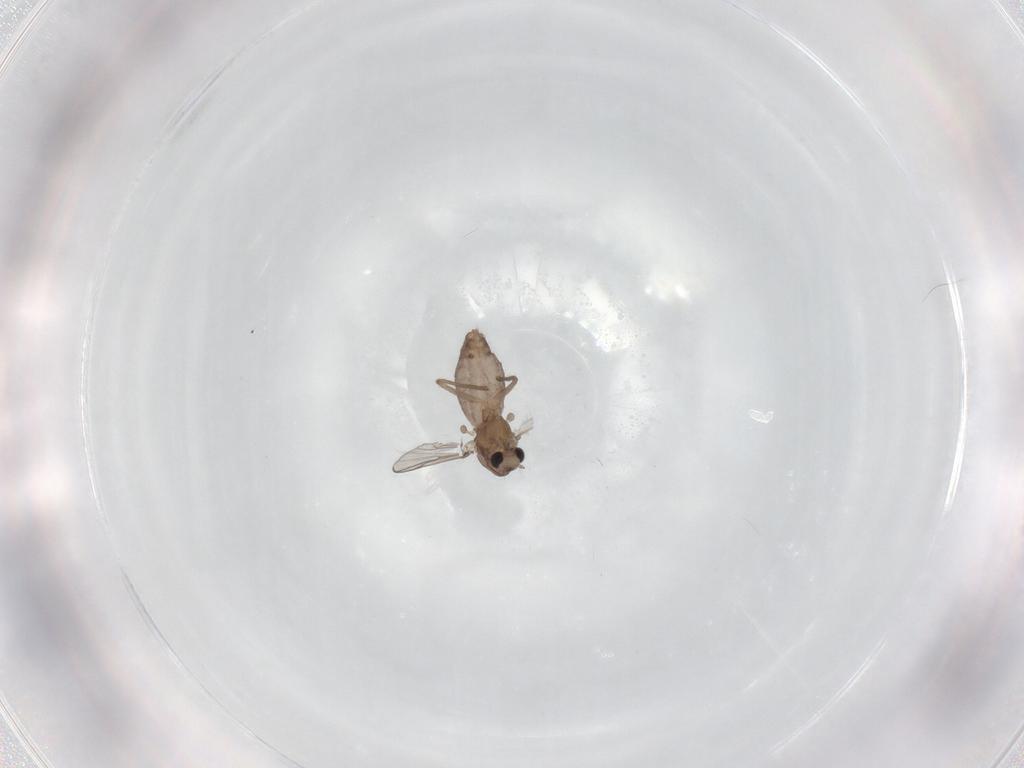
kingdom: Animalia
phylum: Arthropoda
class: Insecta
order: Diptera
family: Chironomidae
